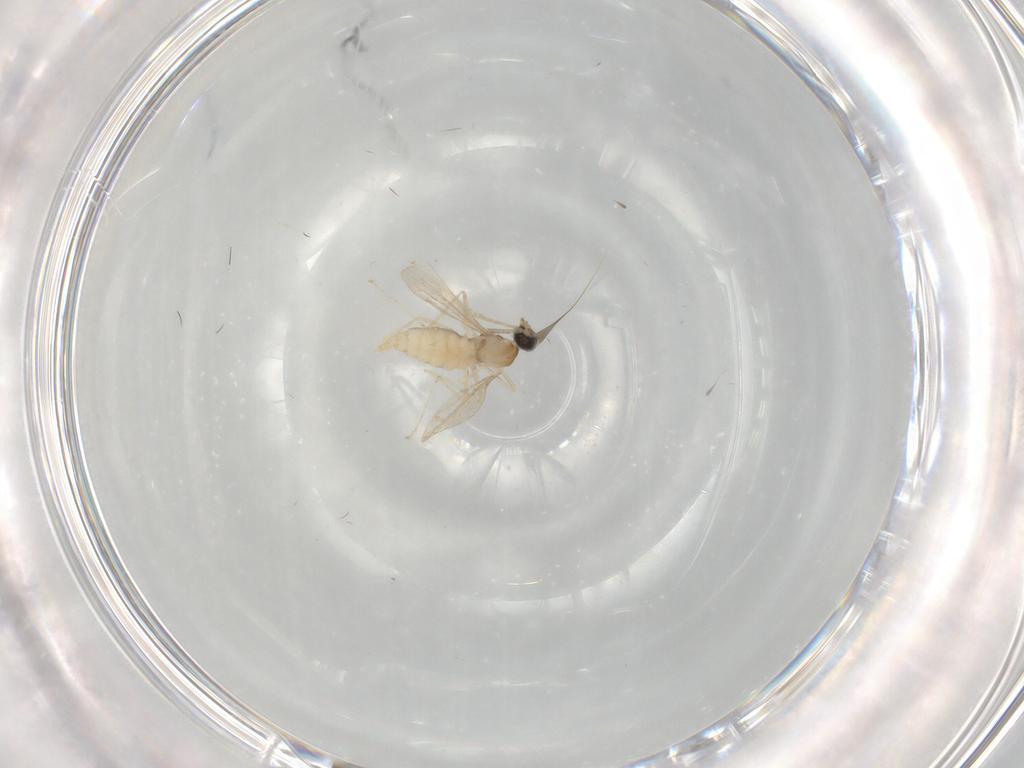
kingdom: Animalia
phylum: Arthropoda
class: Insecta
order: Diptera
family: Cecidomyiidae
